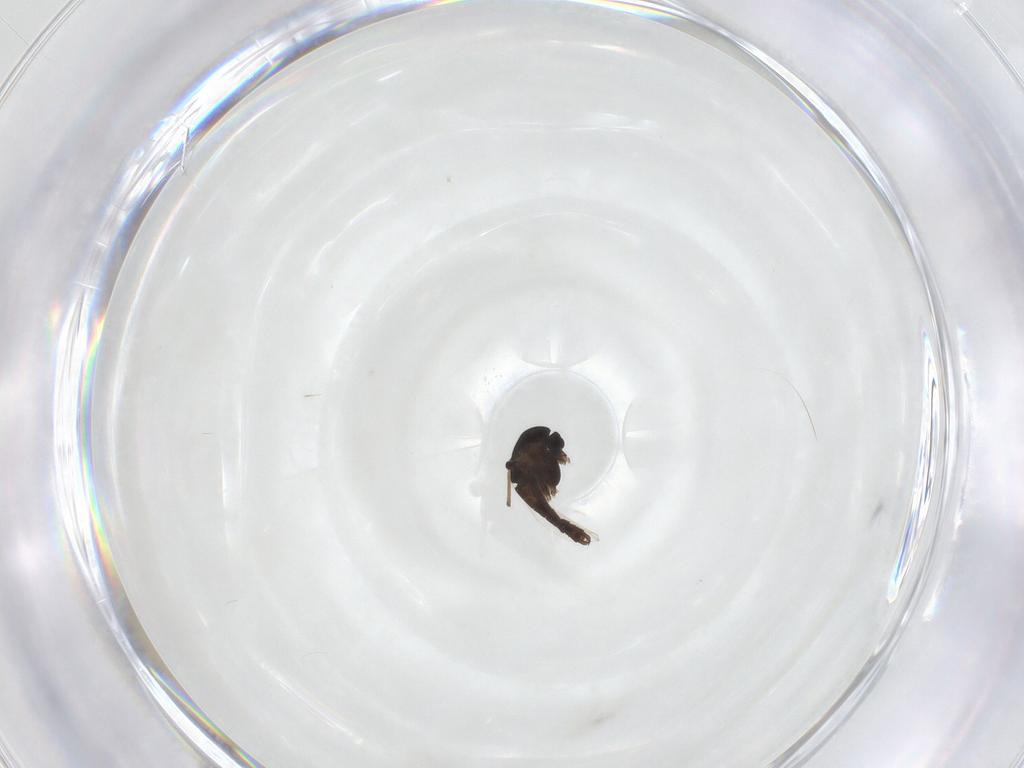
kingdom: Animalia
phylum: Arthropoda
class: Insecta
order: Diptera
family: Chironomidae
